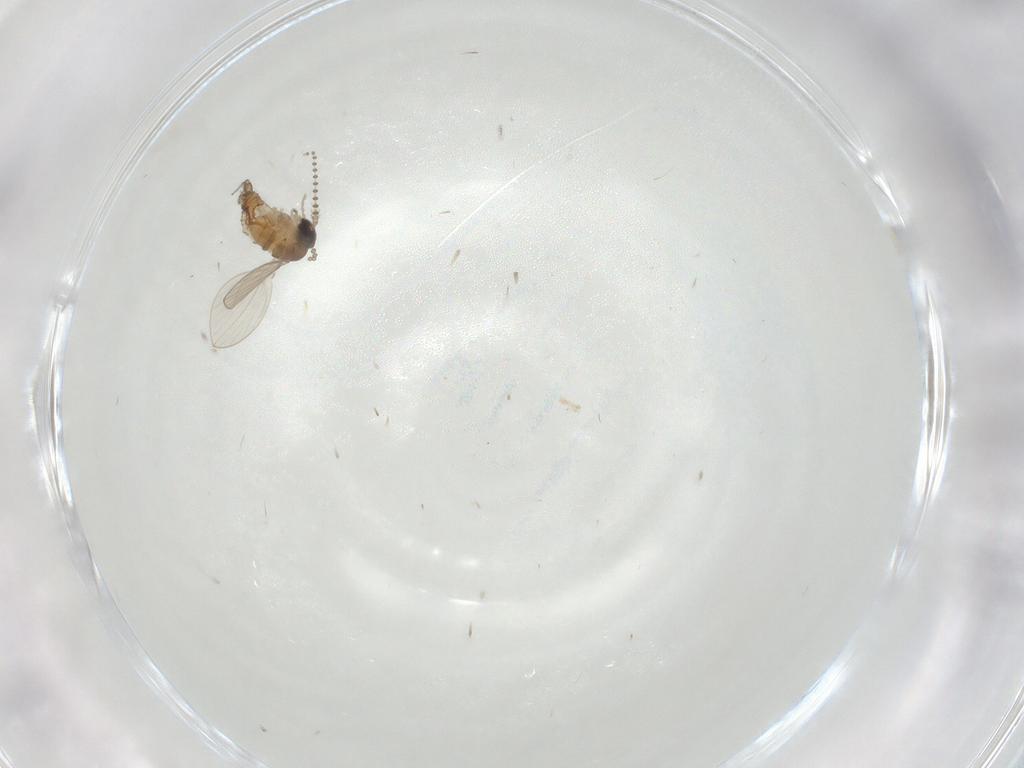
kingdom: Animalia
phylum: Arthropoda
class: Insecta
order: Diptera
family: Psychodidae
